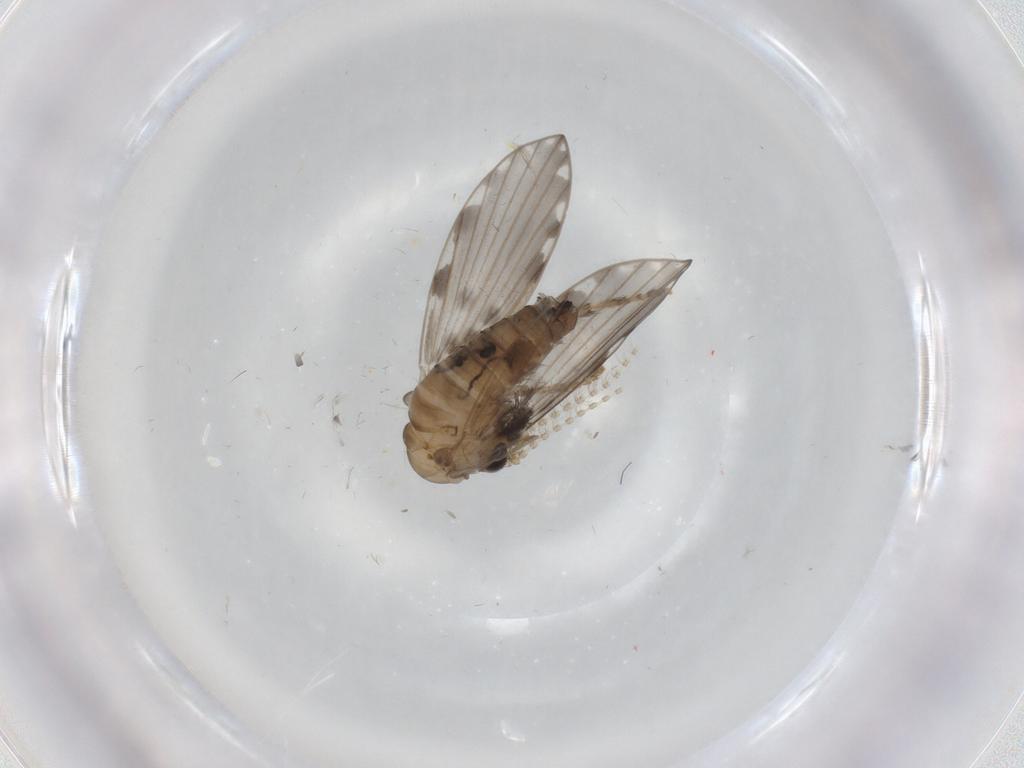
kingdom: Animalia
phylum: Arthropoda
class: Insecta
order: Diptera
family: Psychodidae
